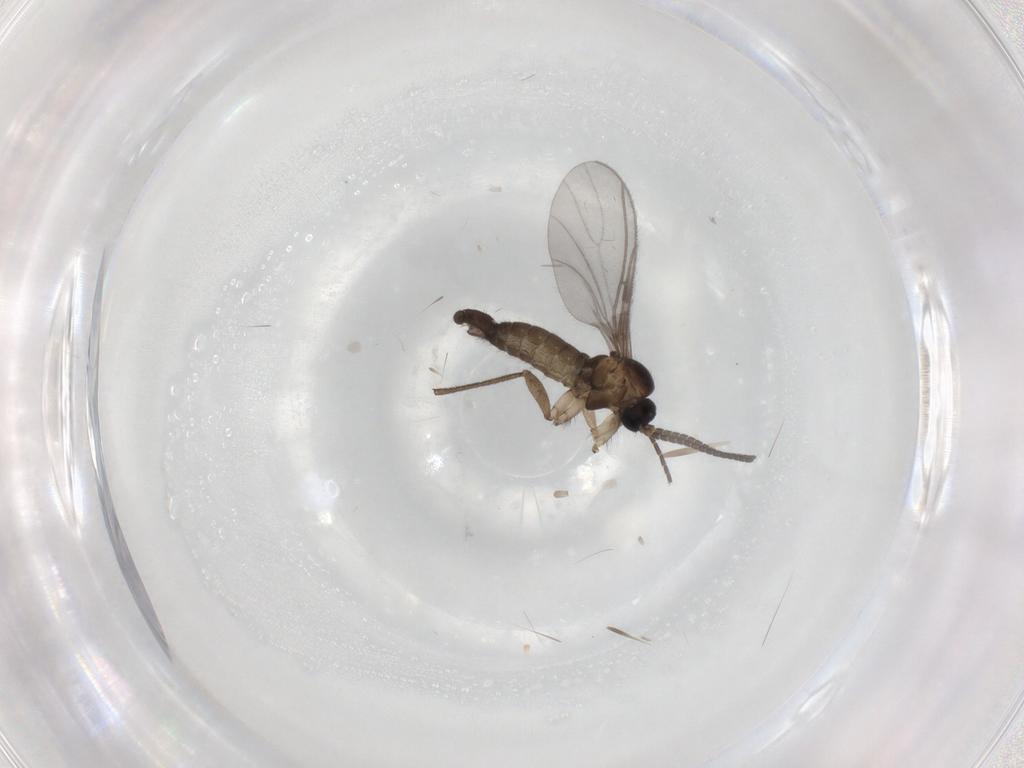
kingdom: Animalia
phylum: Arthropoda
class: Insecta
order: Diptera
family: Sciaridae
